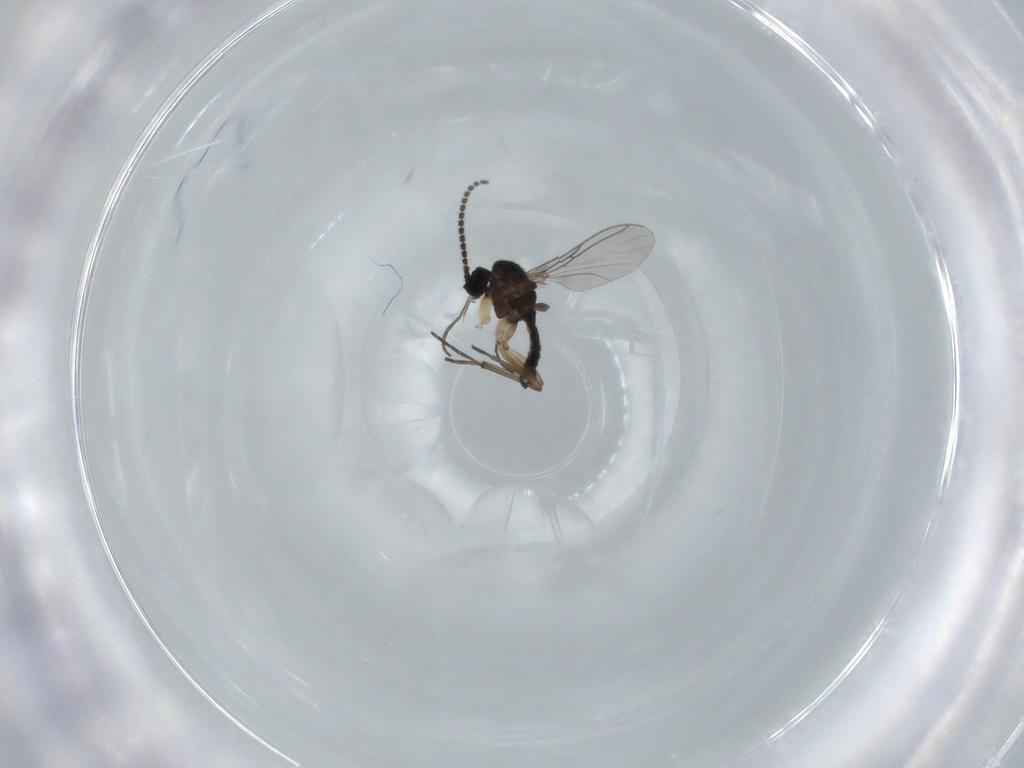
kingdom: Animalia
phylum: Arthropoda
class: Insecta
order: Diptera
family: Sciaridae
